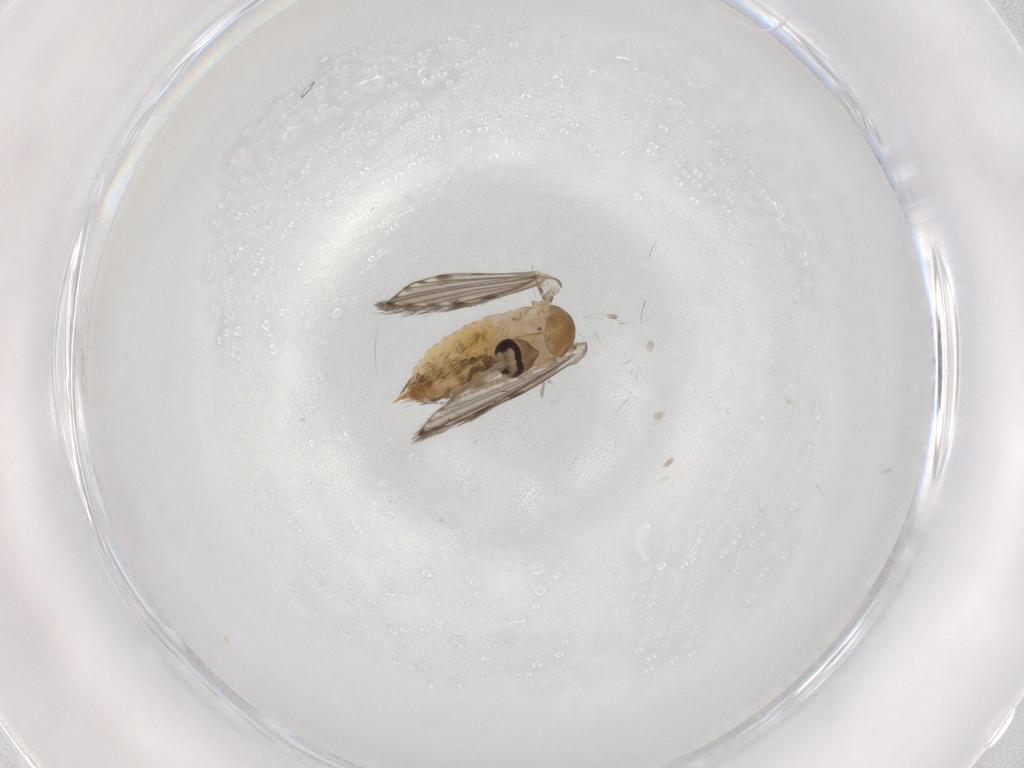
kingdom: Animalia
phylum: Arthropoda
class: Insecta
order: Diptera
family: Psychodidae
